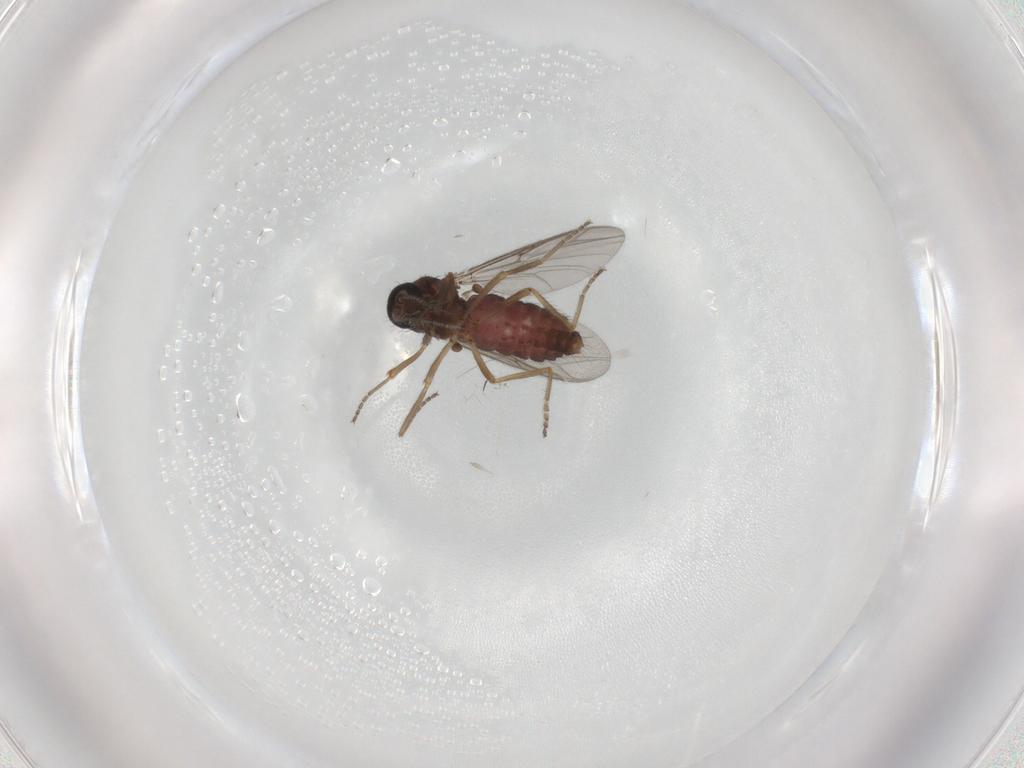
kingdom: Animalia
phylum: Arthropoda
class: Insecta
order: Diptera
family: Ceratopogonidae
